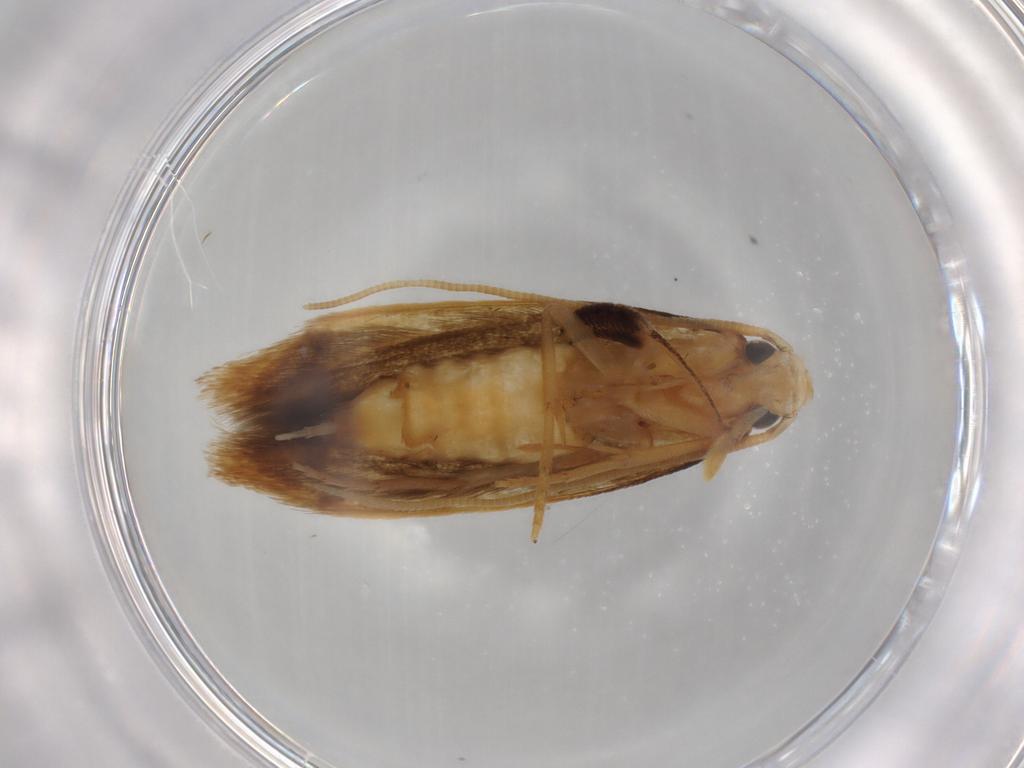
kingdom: Animalia
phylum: Arthropoda
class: Insecta
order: Lepidoptera
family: Tineidae
